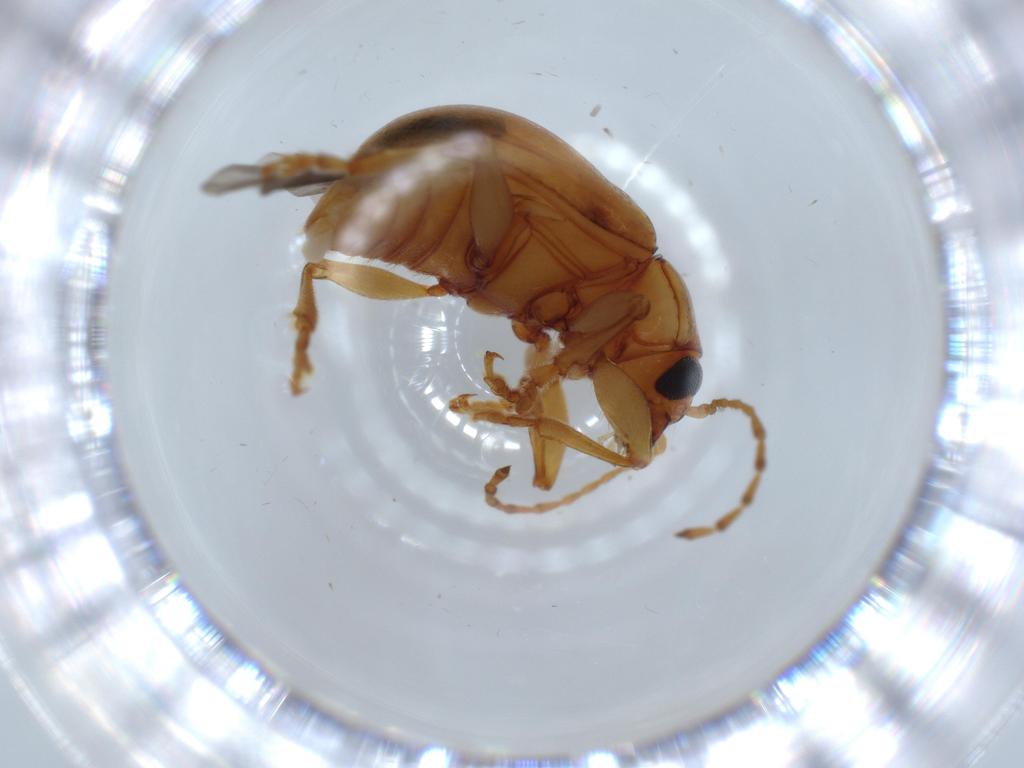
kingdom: Animalia
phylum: Arthropoda
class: Insecta
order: Coleoptera
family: Chrysomelidae
